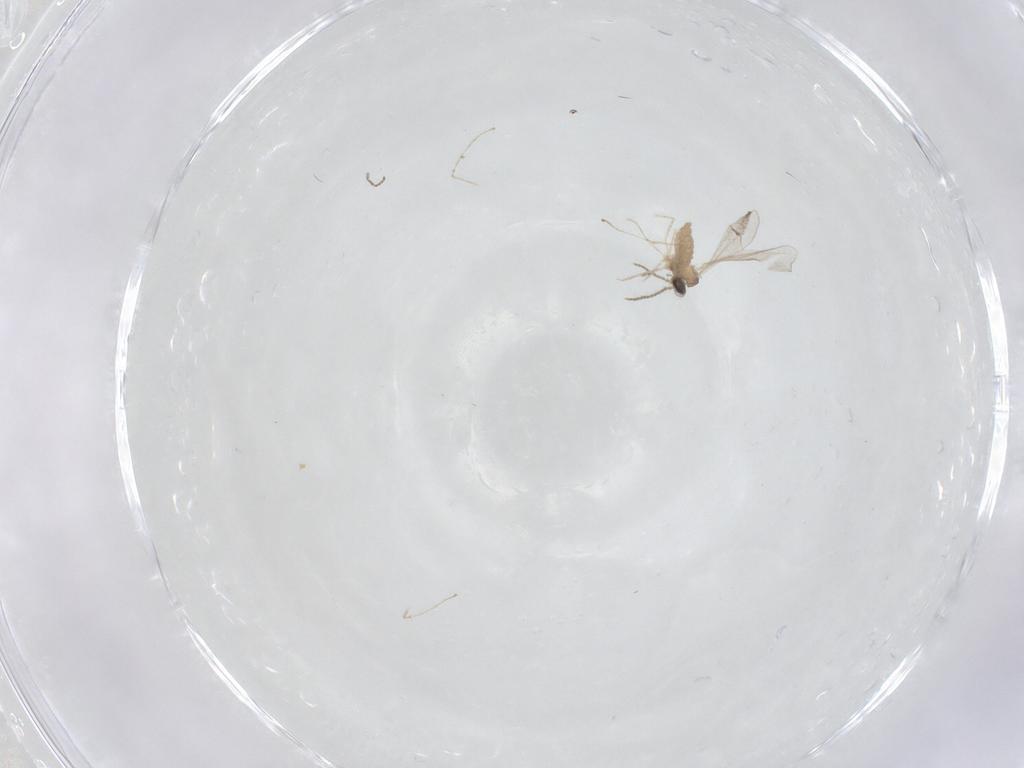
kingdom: Animalia
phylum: Arthropoda
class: Insecta
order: Diptera
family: Cecidomyiidae
